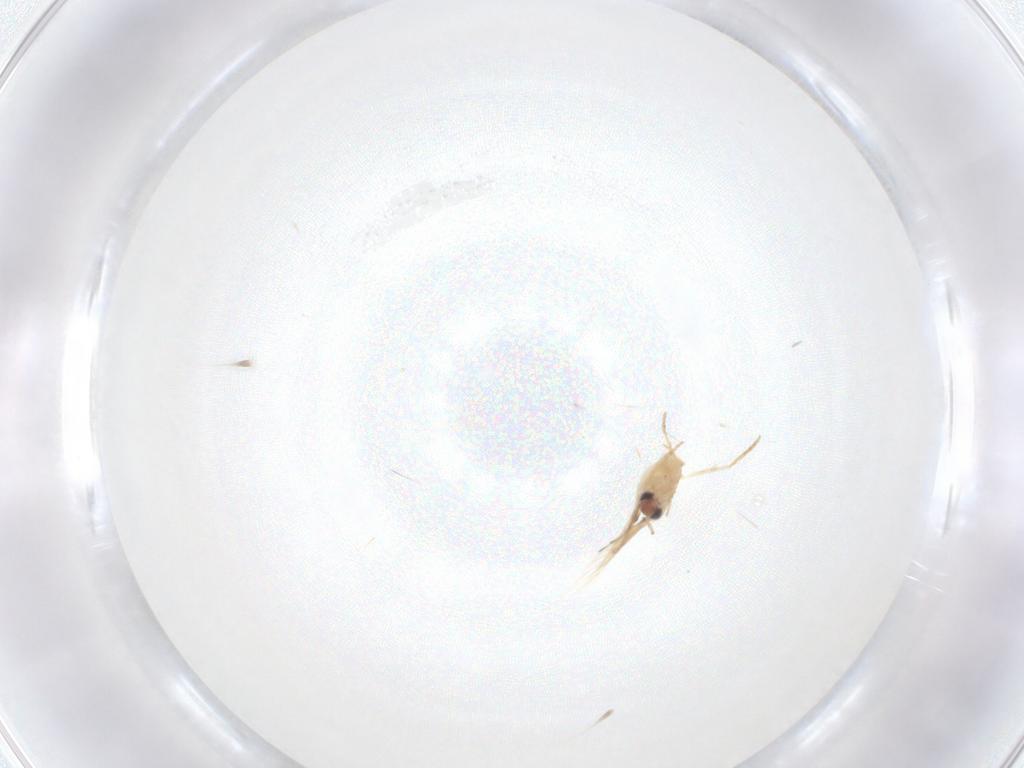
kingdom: Animalia
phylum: Arthropoda
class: Insecta
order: Lepidoptera
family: Nepticulidae
